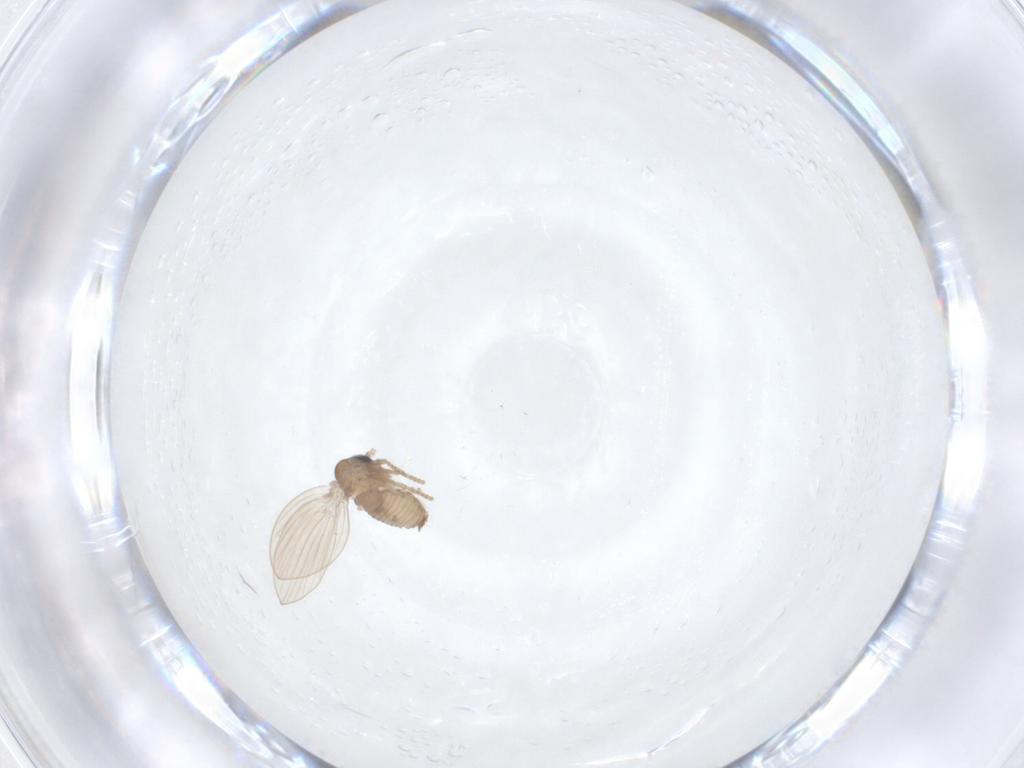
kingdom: Animalia
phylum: Arthropoda
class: Insecta
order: Diptera
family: Psychodidae
